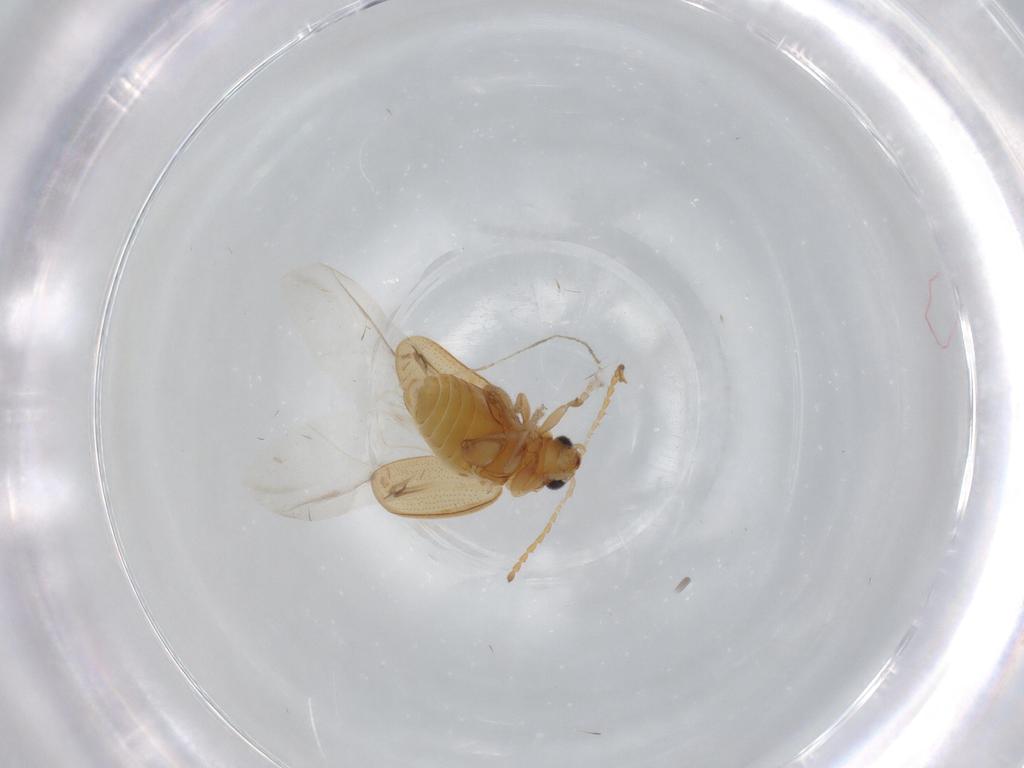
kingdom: Animalia
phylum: Arthropoda
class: Insecta
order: Coleoptera
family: Chrysomelidae
